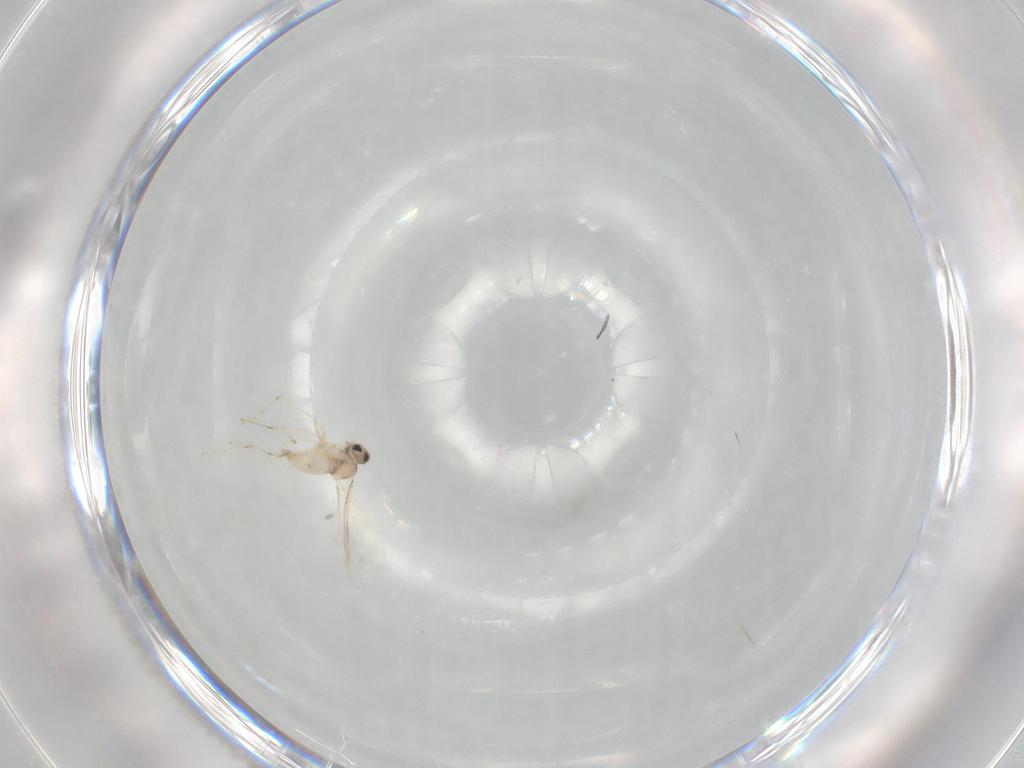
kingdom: Animalia
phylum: Arthropoda
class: Insecta
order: Diptera
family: Cecidomyiidae
